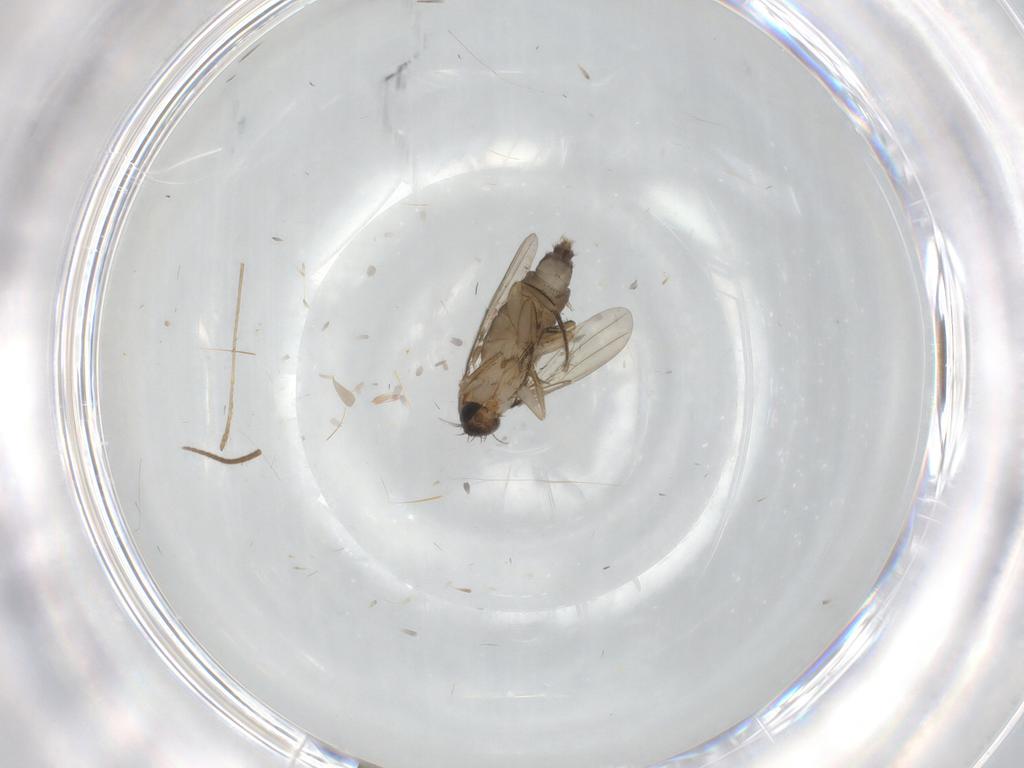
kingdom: Animalia
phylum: Arthropoda
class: Insecta
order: Diptera
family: Phoridae
